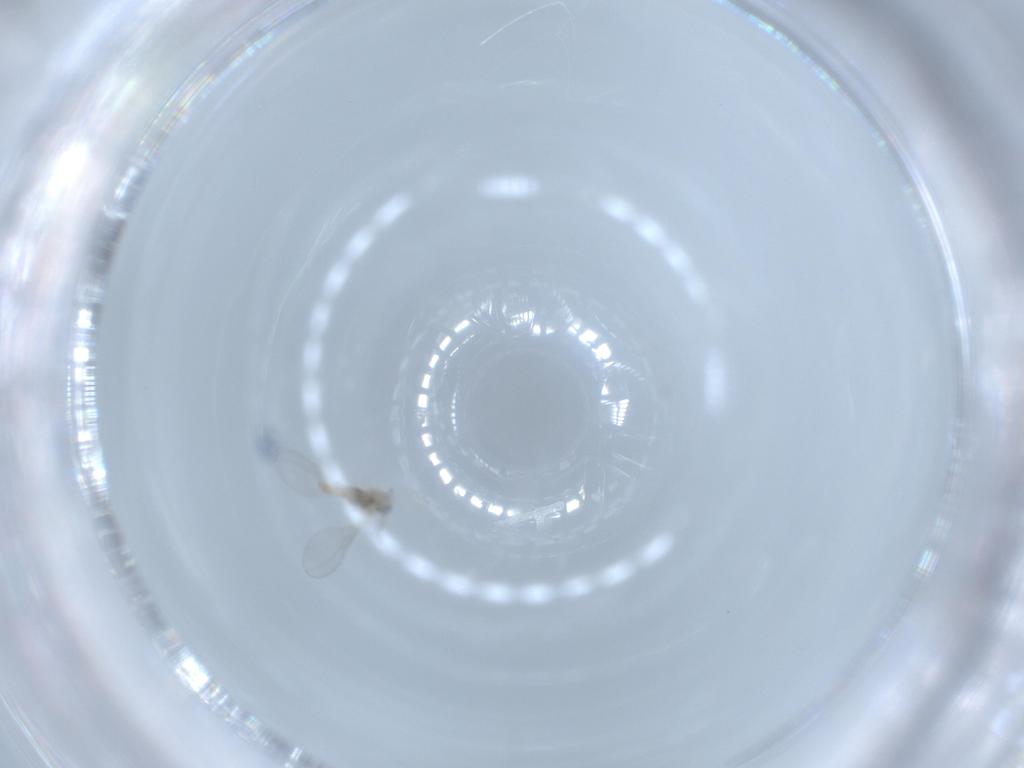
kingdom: Animalia
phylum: Arthropoda
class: Insecta
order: Diptera
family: Cecidomyiidae
